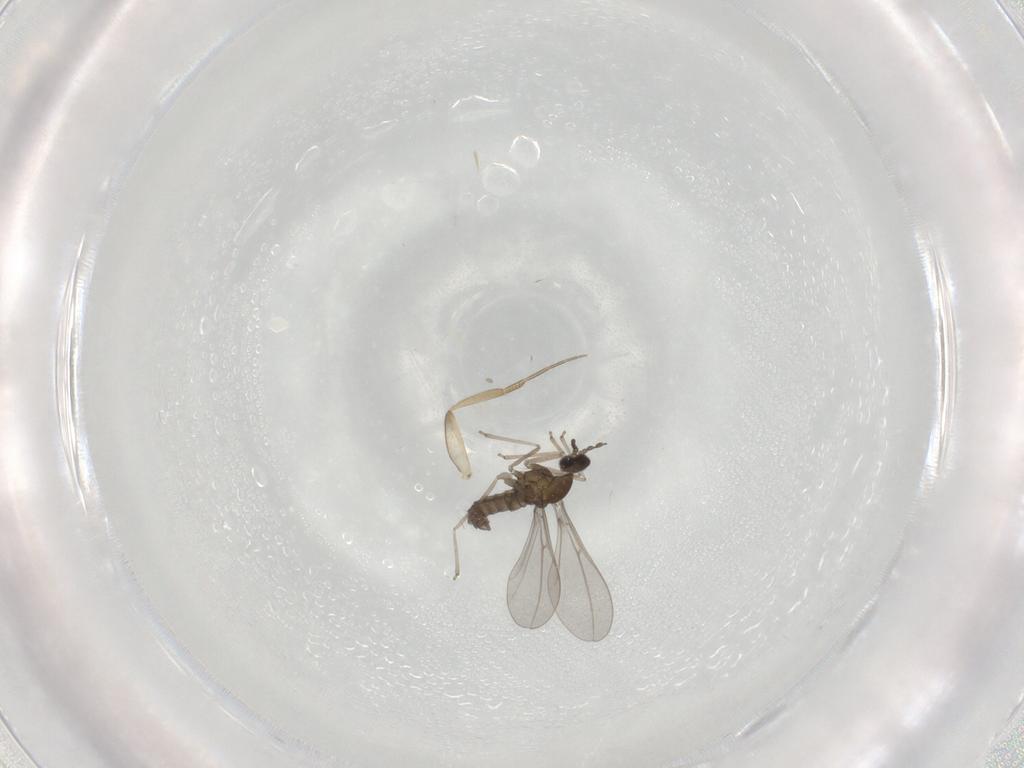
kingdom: Animalia
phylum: Arthropoda
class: Insecta
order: Diptera
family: Cecidomyiidae
